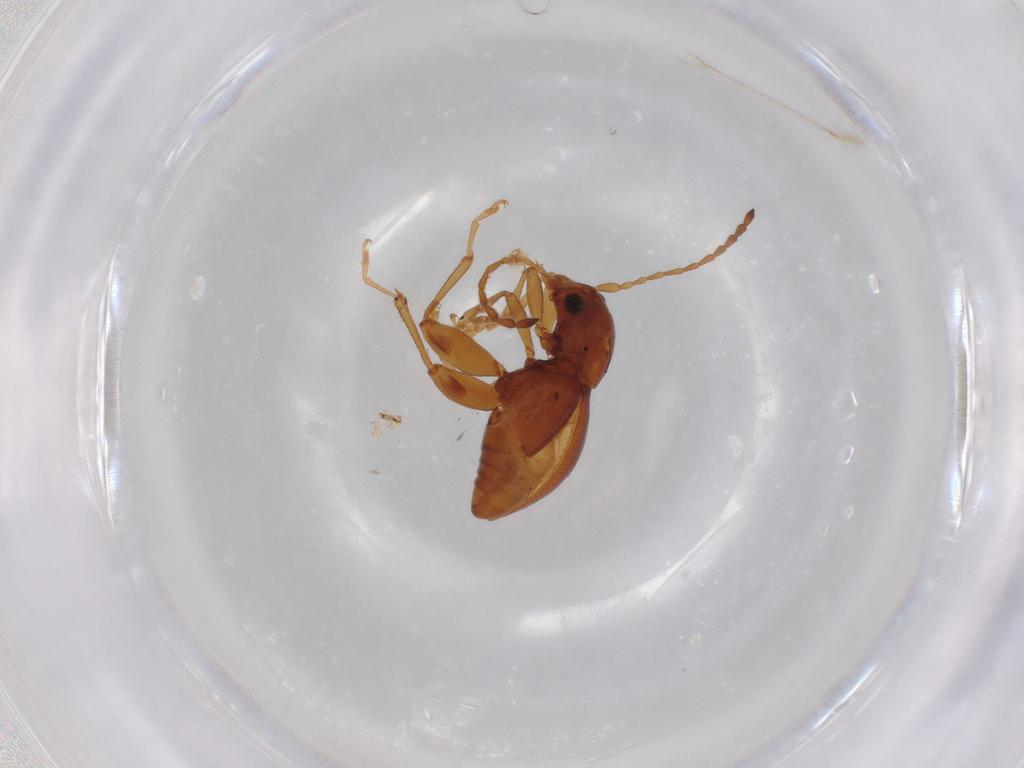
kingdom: Animalia
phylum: Arthropoda
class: Insecta
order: Coleoptera
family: Chrysomelidae
